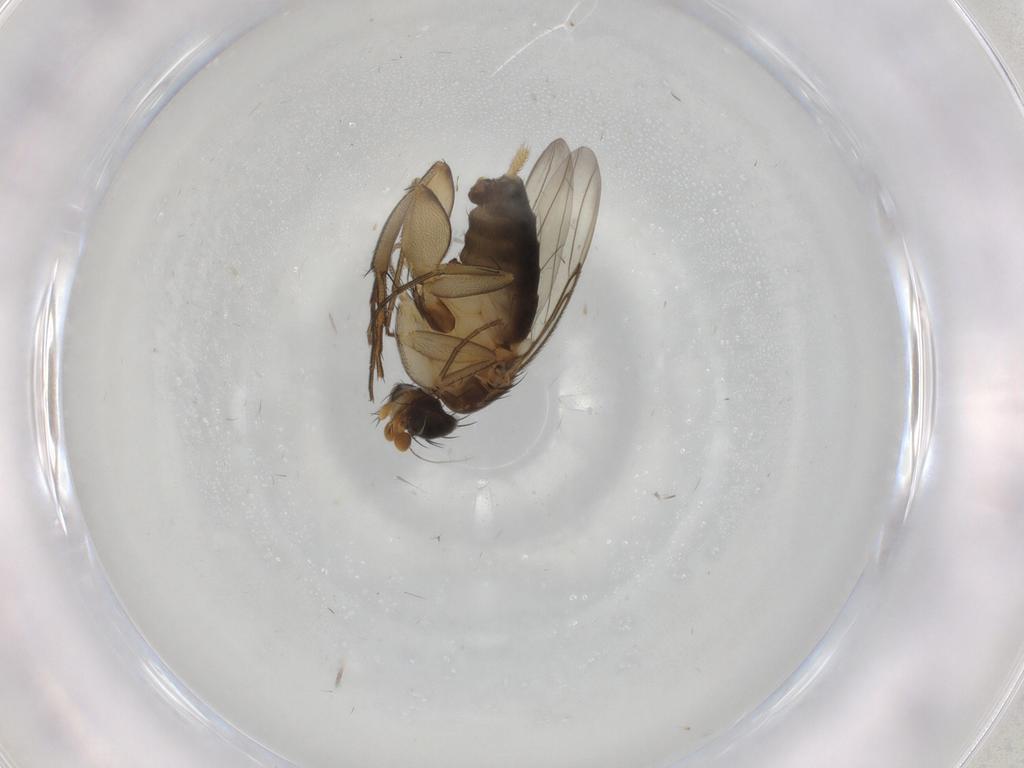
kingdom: Animalia
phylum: Arthropoda
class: Insecta
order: Diptera
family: Phoridae
